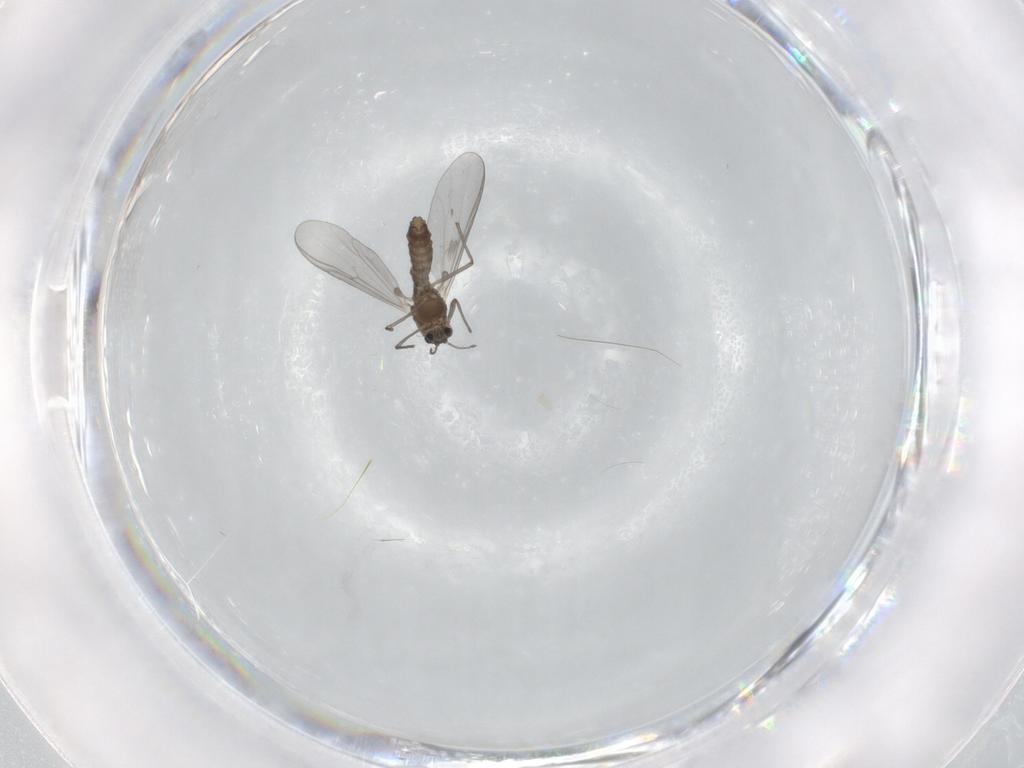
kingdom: Animalia
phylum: Arthropoda
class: Insecta
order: Diptera
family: Chironomidae
